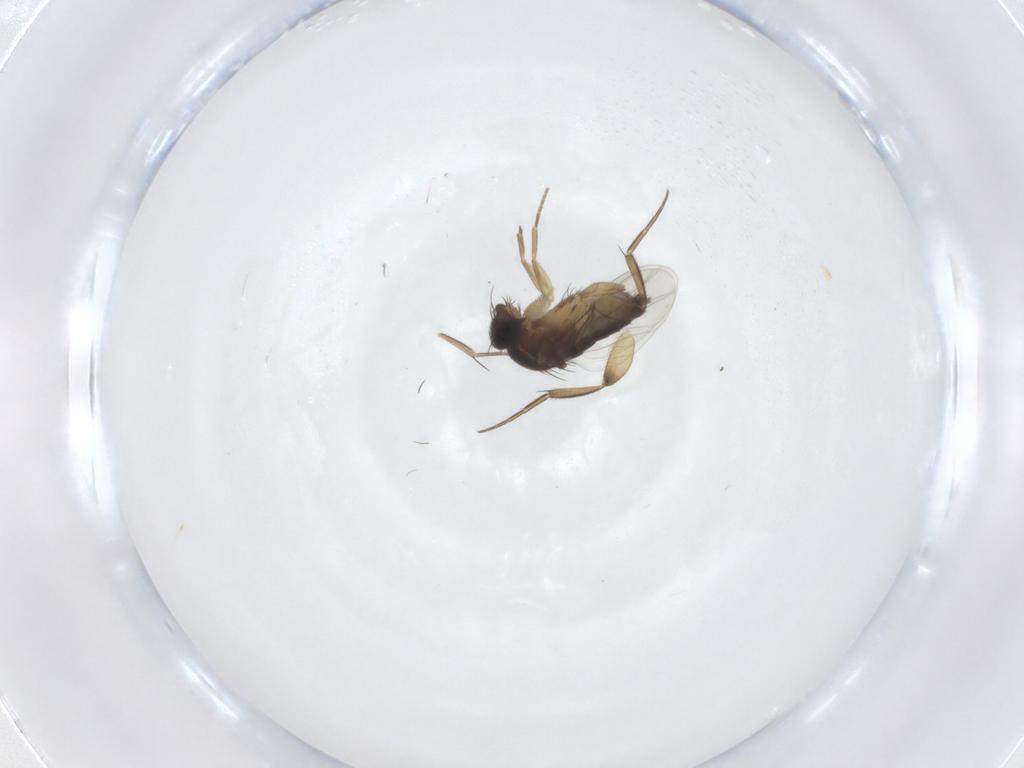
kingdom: Animalia
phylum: Arthropoda
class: Insecta
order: Diptera
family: Phoridae
